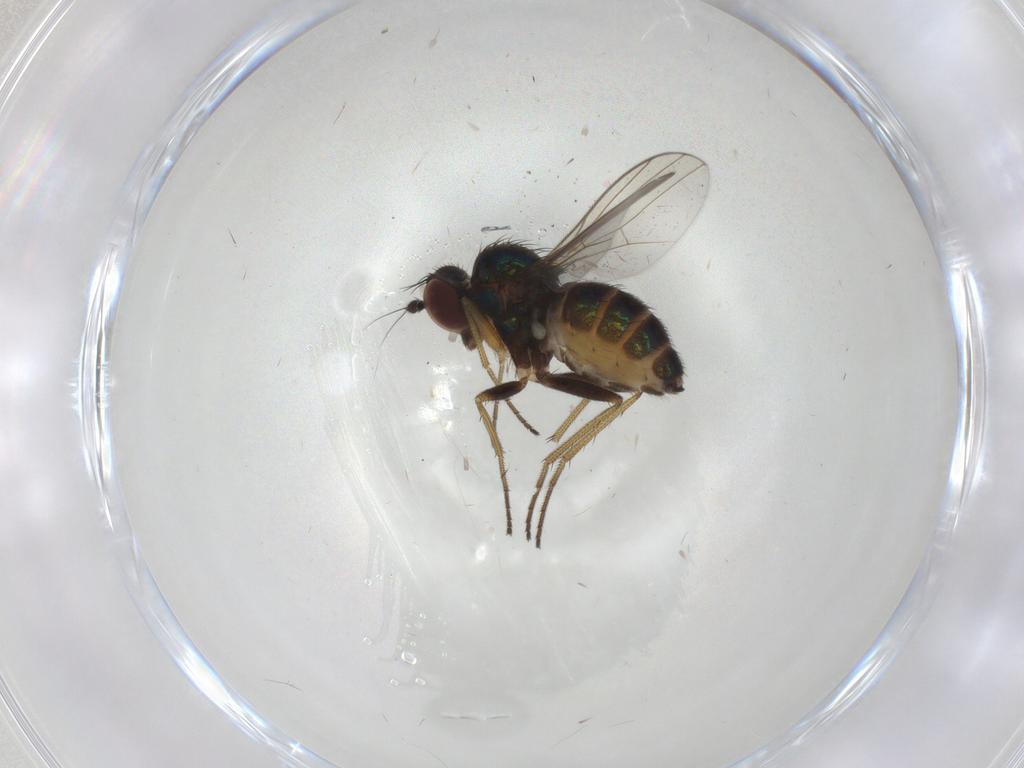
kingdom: Animalia
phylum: Arthropoda
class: Insecta
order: Diptera
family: Dolichopodidae
